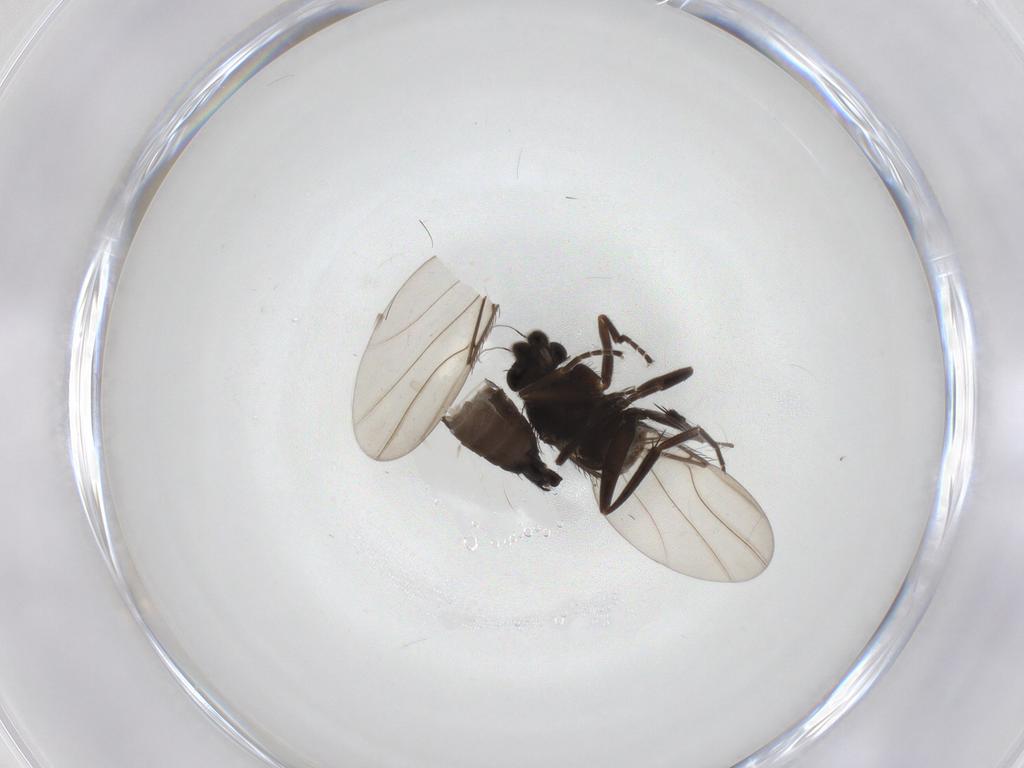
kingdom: Animalia
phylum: Arthropoda
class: Insecta
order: Diptera
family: Phoridae
